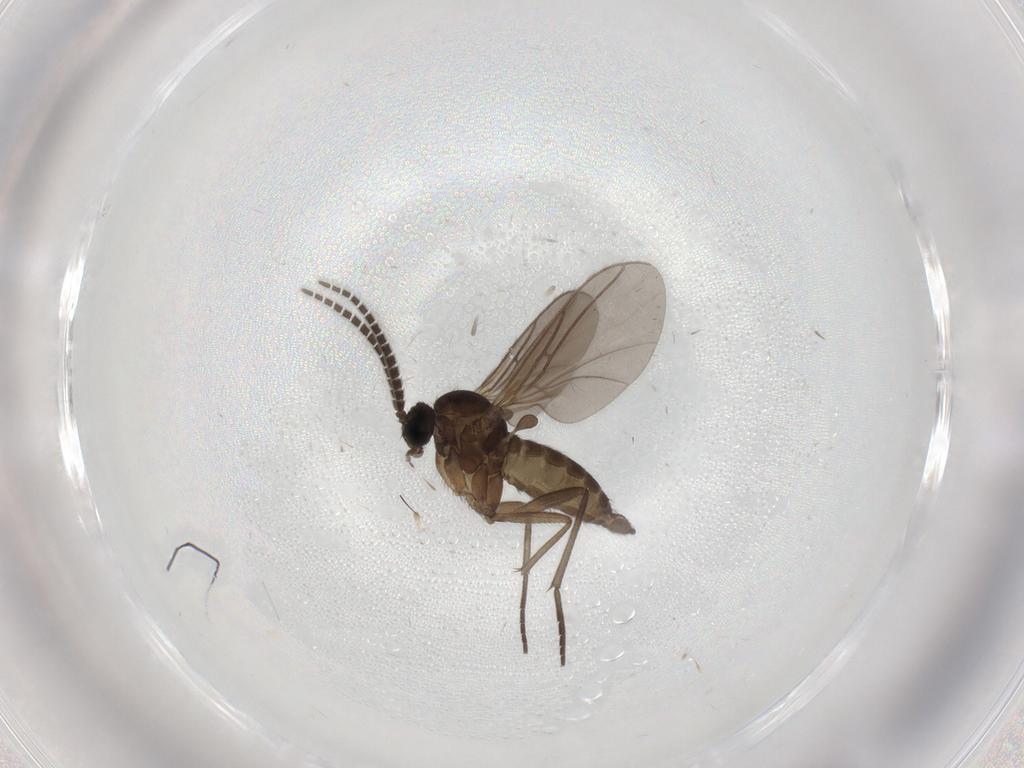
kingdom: Animalia
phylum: Arthropoda
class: Insecta
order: Diptera
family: Sciaridae
